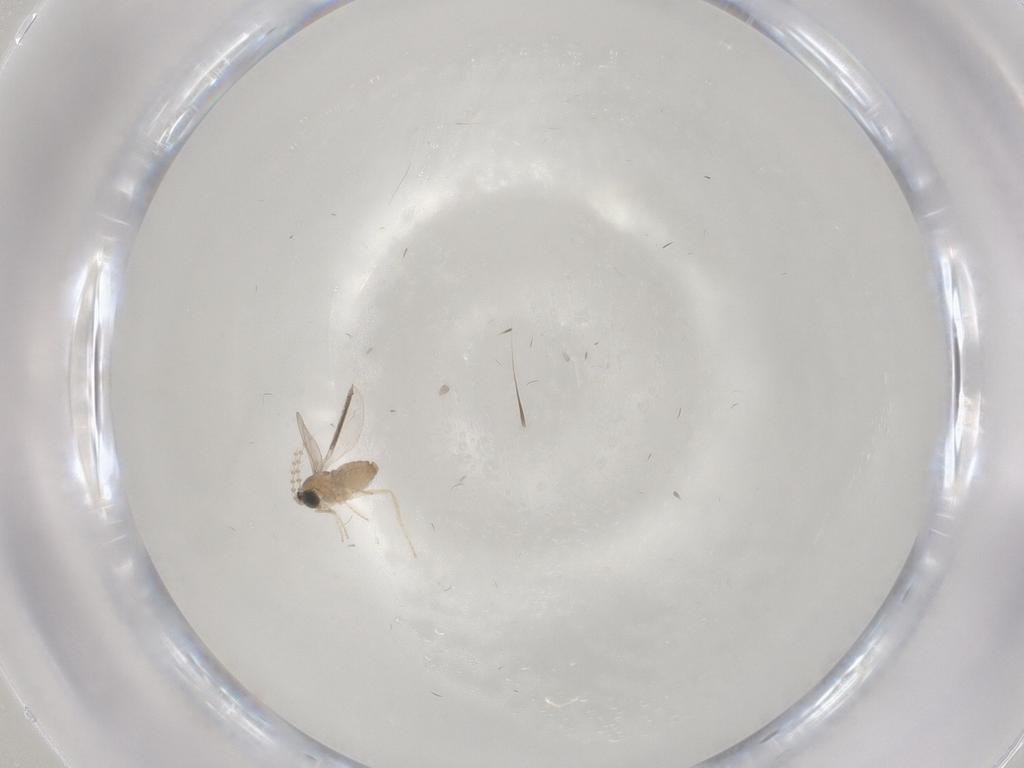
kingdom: Animalia
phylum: Arthropoda
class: Insecta
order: Diptera
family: Cecidomyiidae
